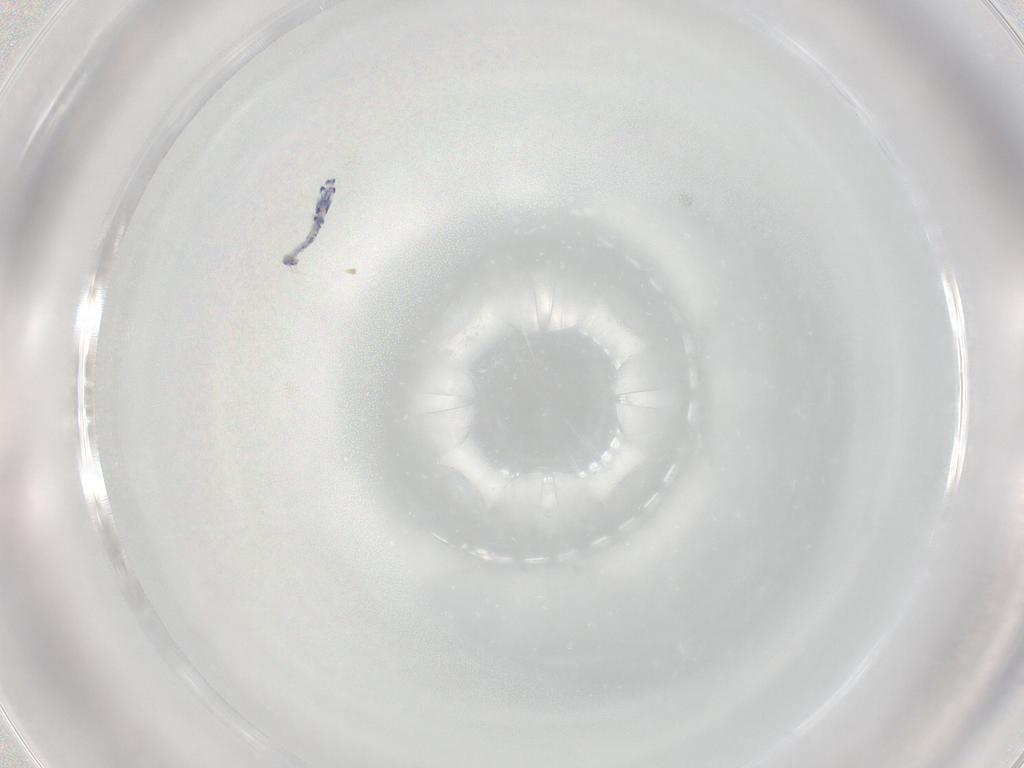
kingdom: Animalia
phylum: Arthropoda
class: Collembola
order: Entomobryomorpha
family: Entomobryidae
